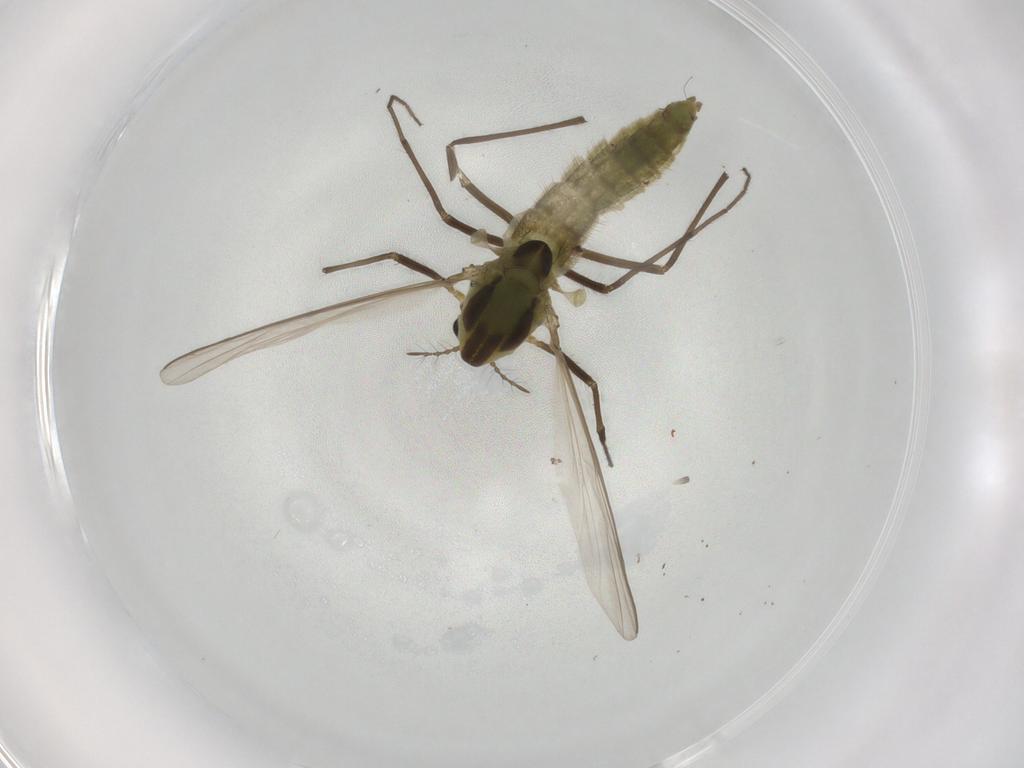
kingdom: Animalia
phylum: Arthropoda
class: Insecta
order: Diptera
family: Chironomidae
